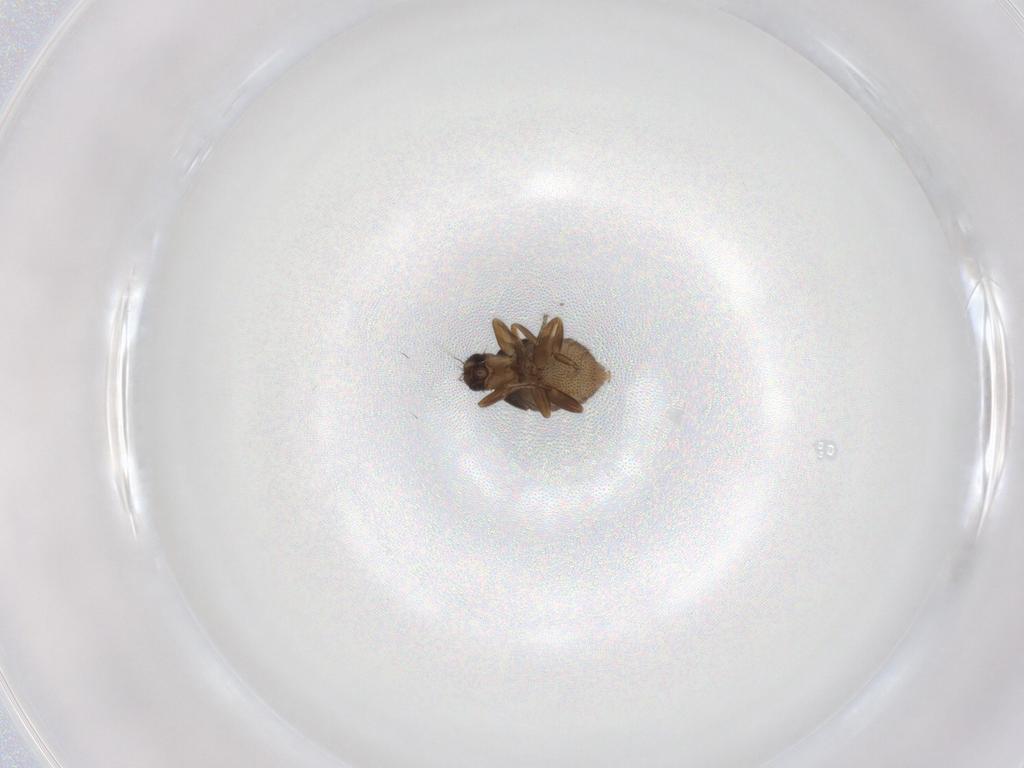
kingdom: Animalia
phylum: Arthropoda
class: Insecta
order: Diptera
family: Phoridae
